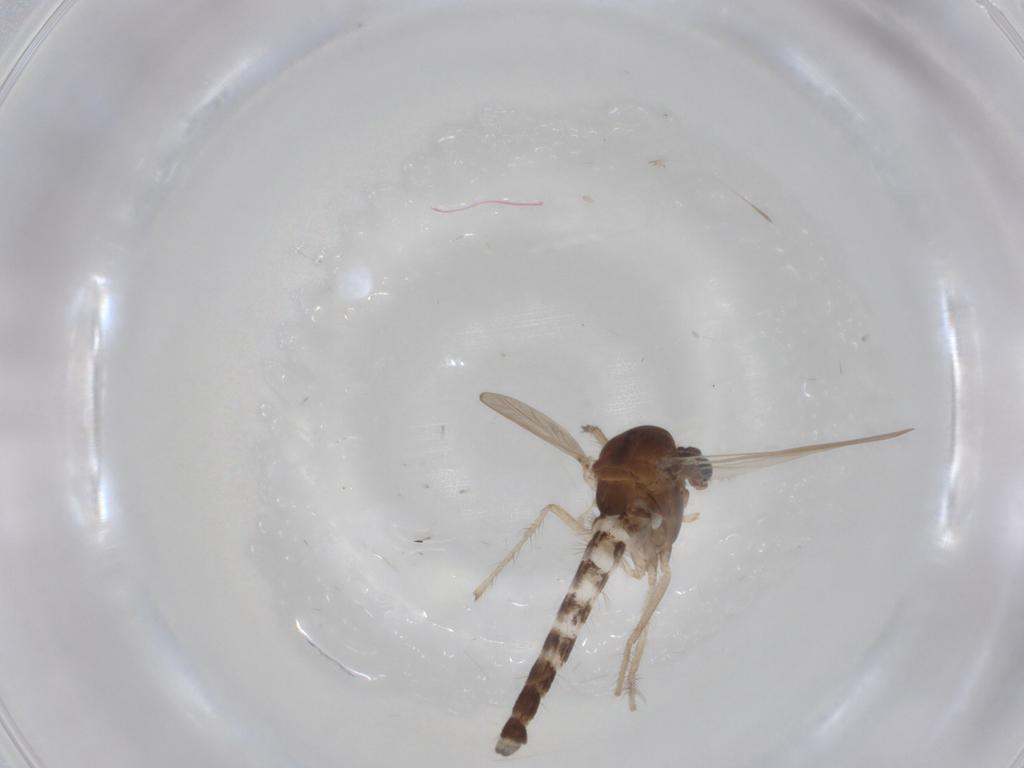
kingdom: Animalia
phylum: Arthropoda
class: Insecta
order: Diptera
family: Chironomidae
